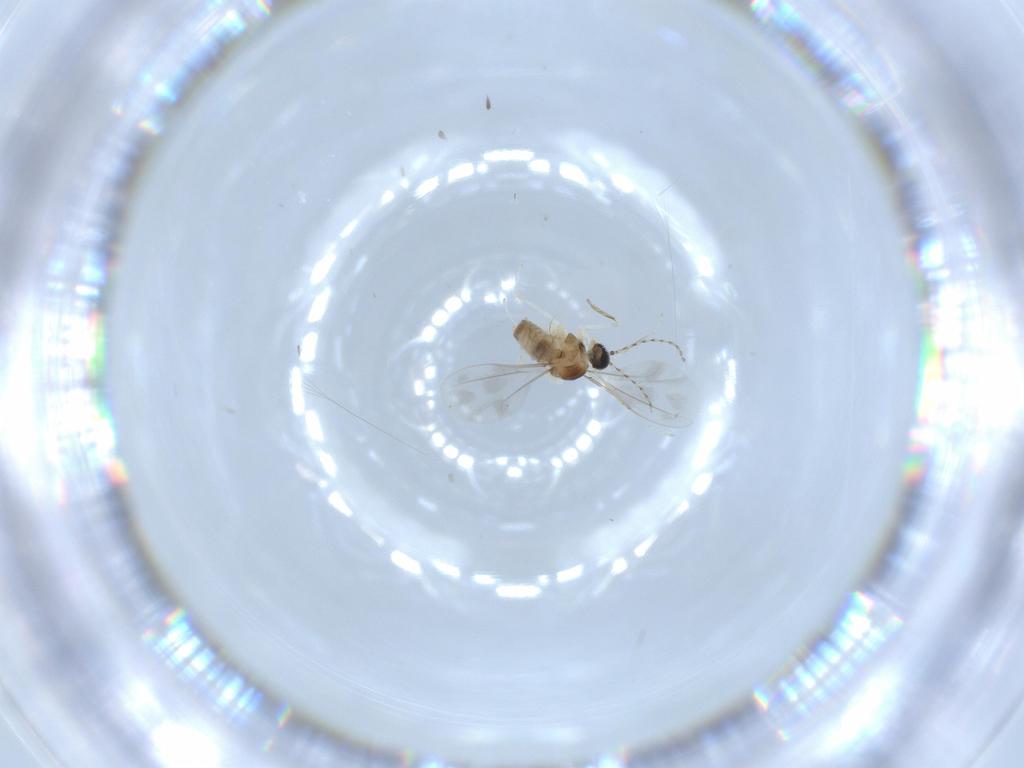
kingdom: Animalia
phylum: Arthropoda
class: Insecta
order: Diptera
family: Cecidomyiidae
